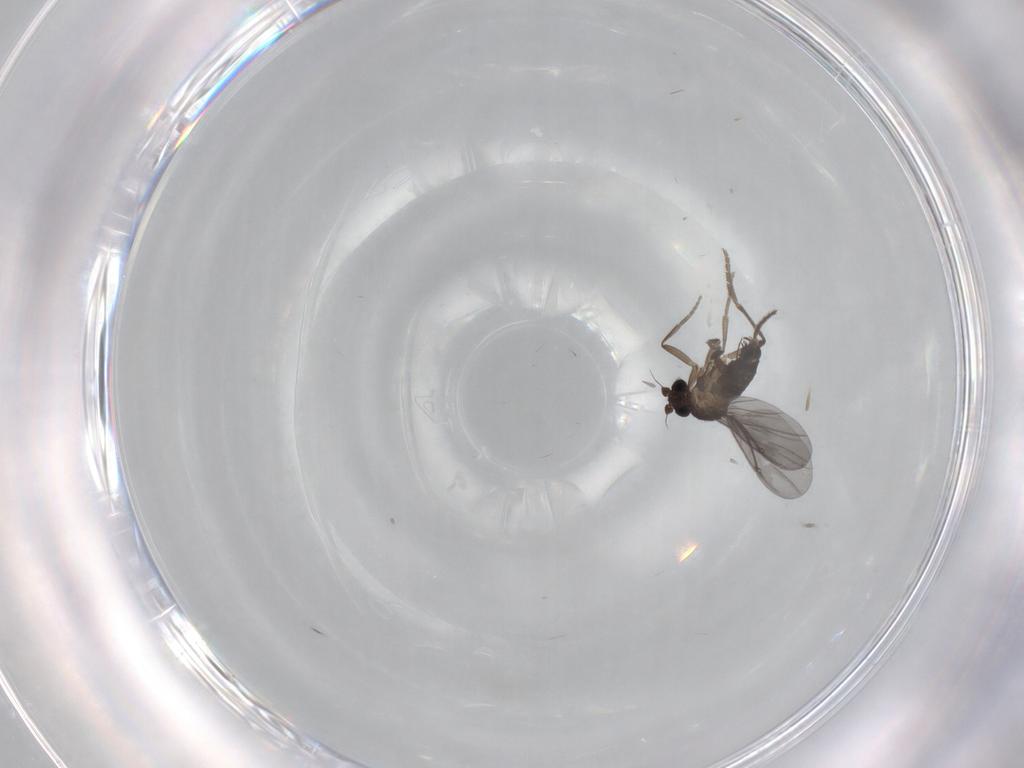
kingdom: Animalia
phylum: Arthropoda
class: Insecta
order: Diptera
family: Phoridae
